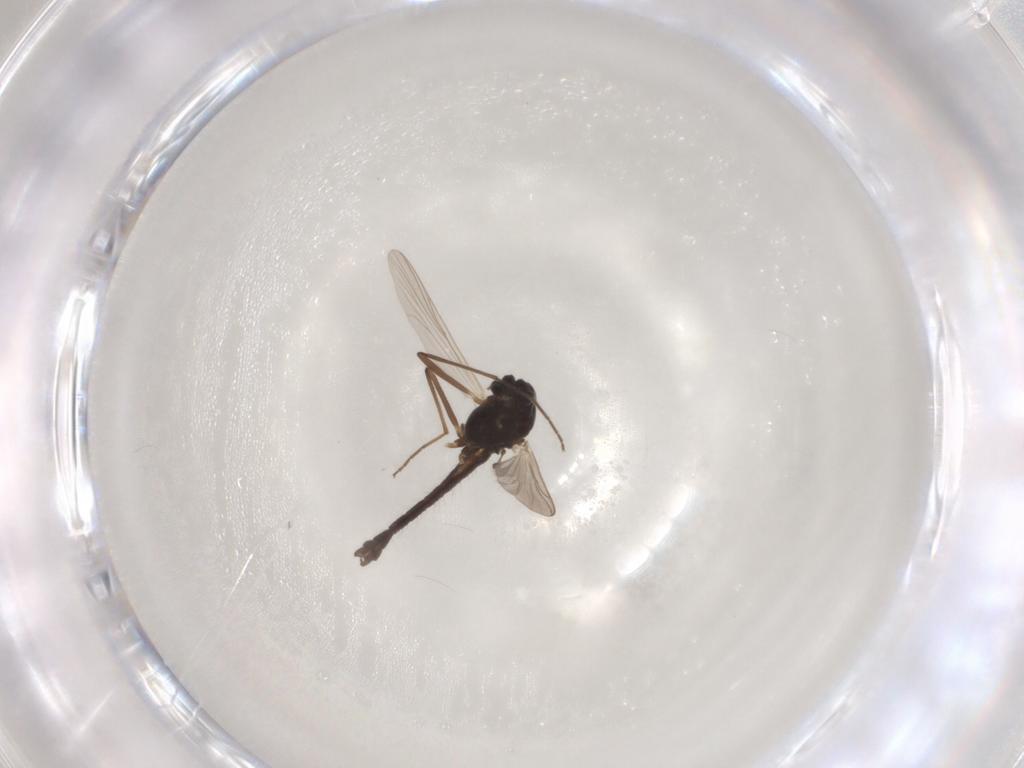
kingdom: Animalia
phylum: Arthropoda
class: Insecta
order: Diptera
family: Chironomidae
